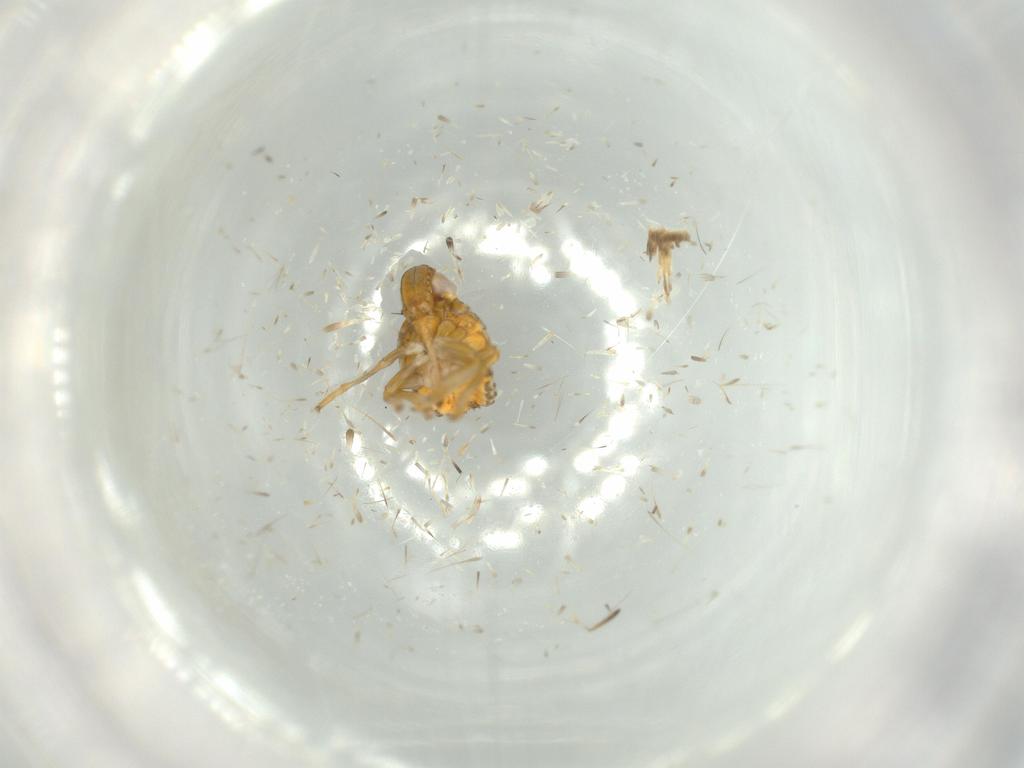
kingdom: Animalia
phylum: Arthropoda
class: Insecta
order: Hemiptera
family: Issidae
